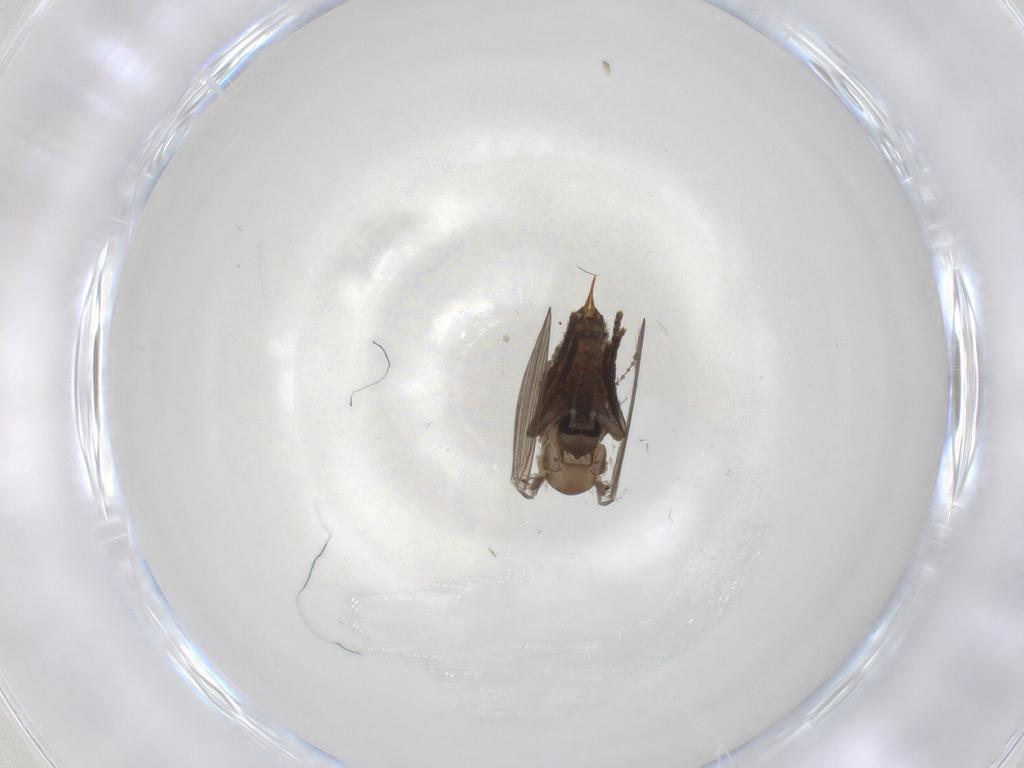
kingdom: Animalia
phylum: Arthropoda
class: Insecta
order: Diptera
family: Psychodidae
